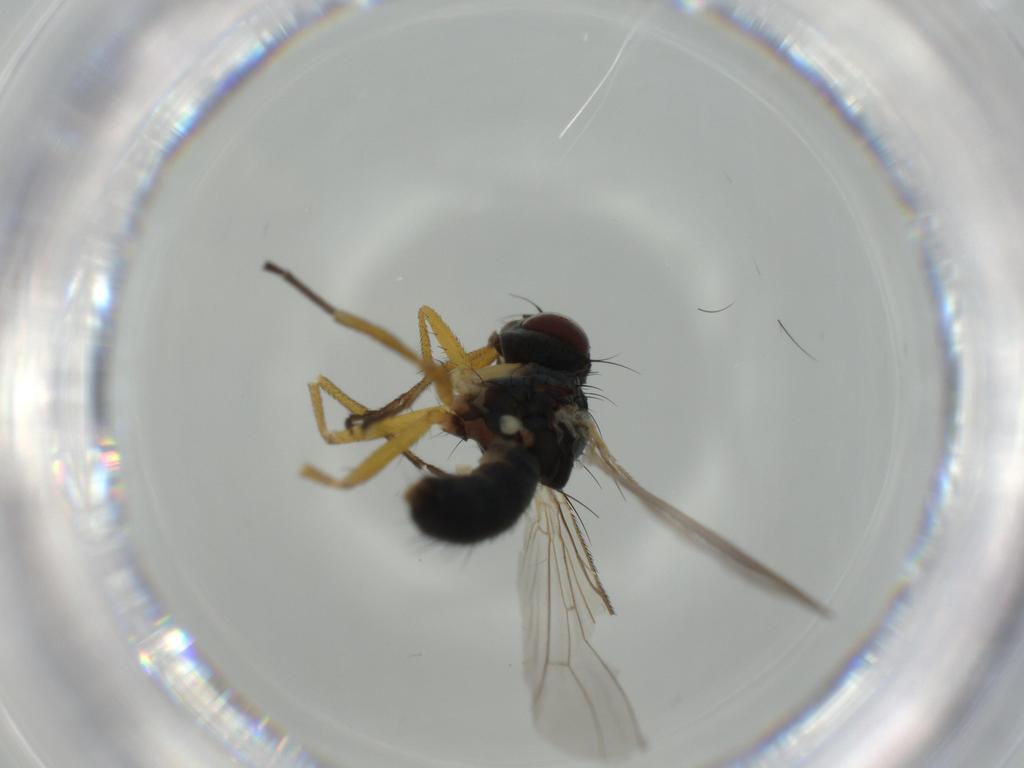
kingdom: Animalia
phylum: Arthropoda
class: Insecta
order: Diptera
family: Muscidae
